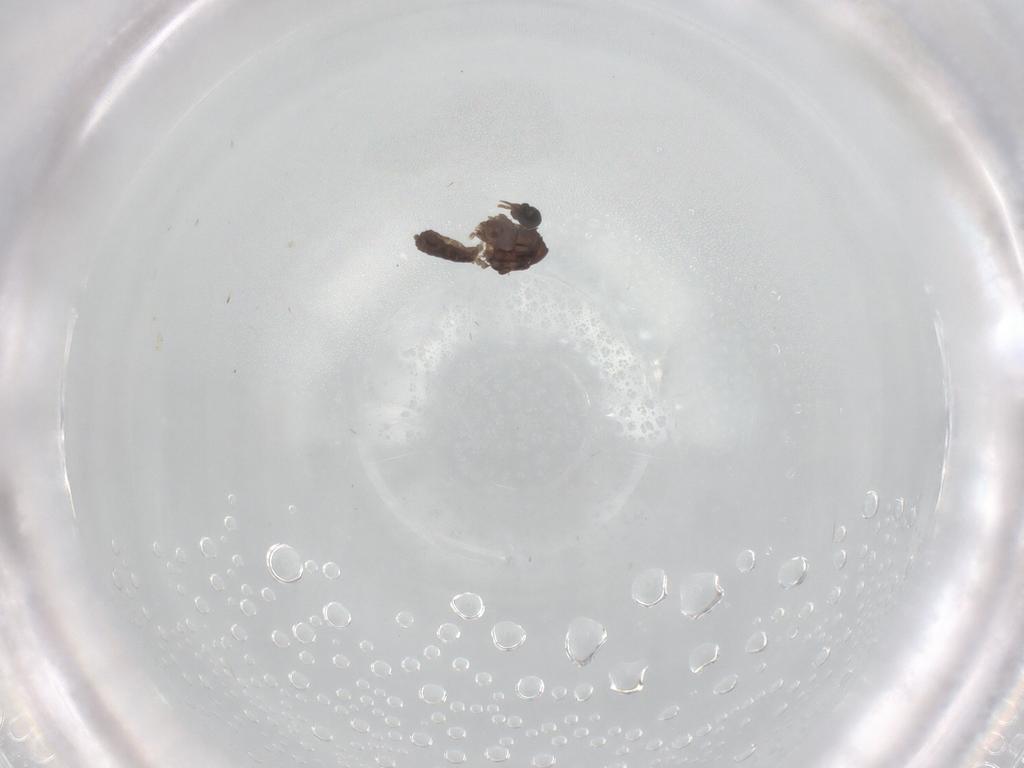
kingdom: Animalia
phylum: Arthropoda
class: Insecta
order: Diptera
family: Ceratopogonidae
